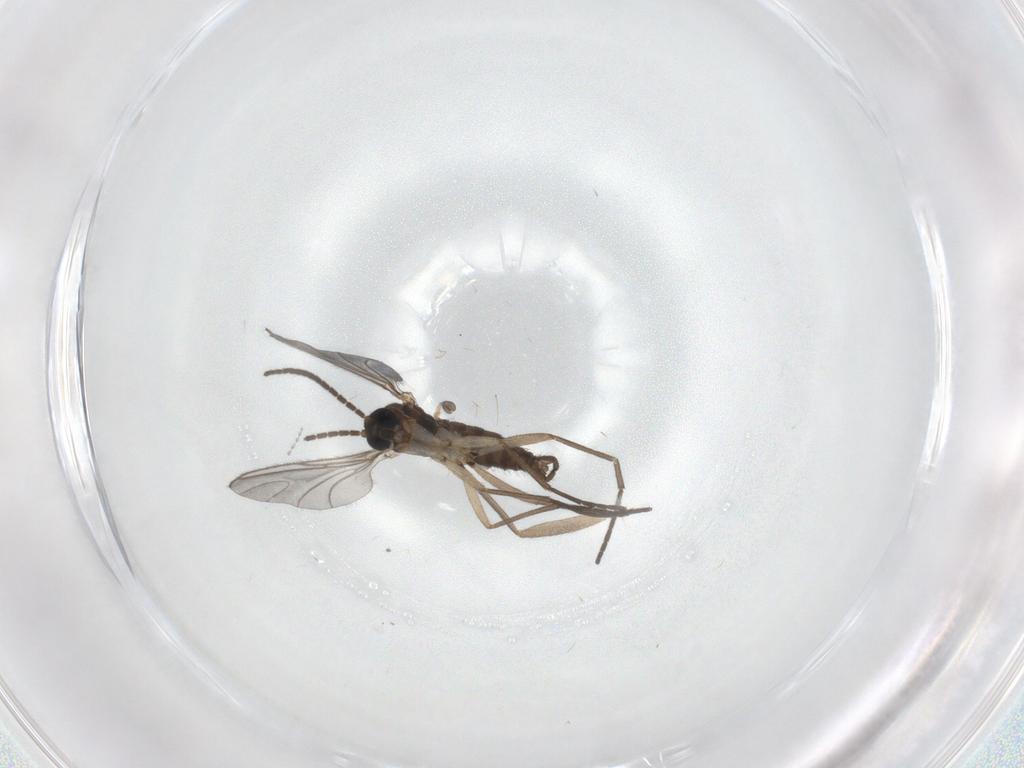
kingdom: Animalia
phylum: Arthropoda
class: Insecta
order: Diptera
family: Sciaridae
